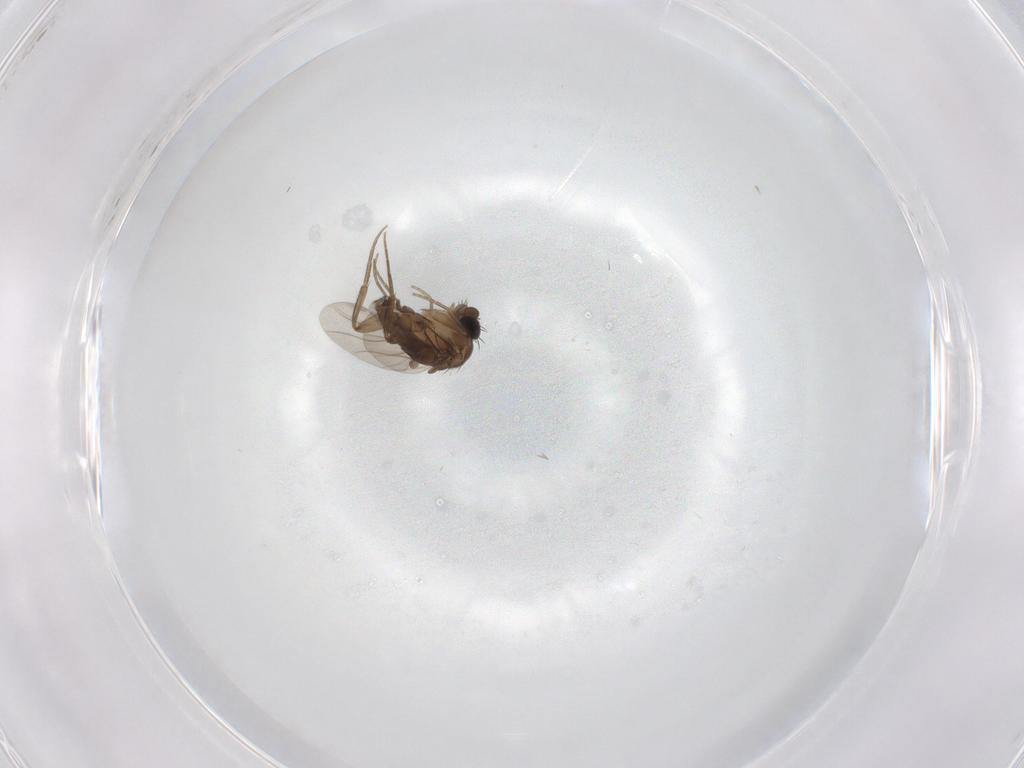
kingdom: Animalia
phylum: Arthropoda
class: Insecta
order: Diptera
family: Phoridae
